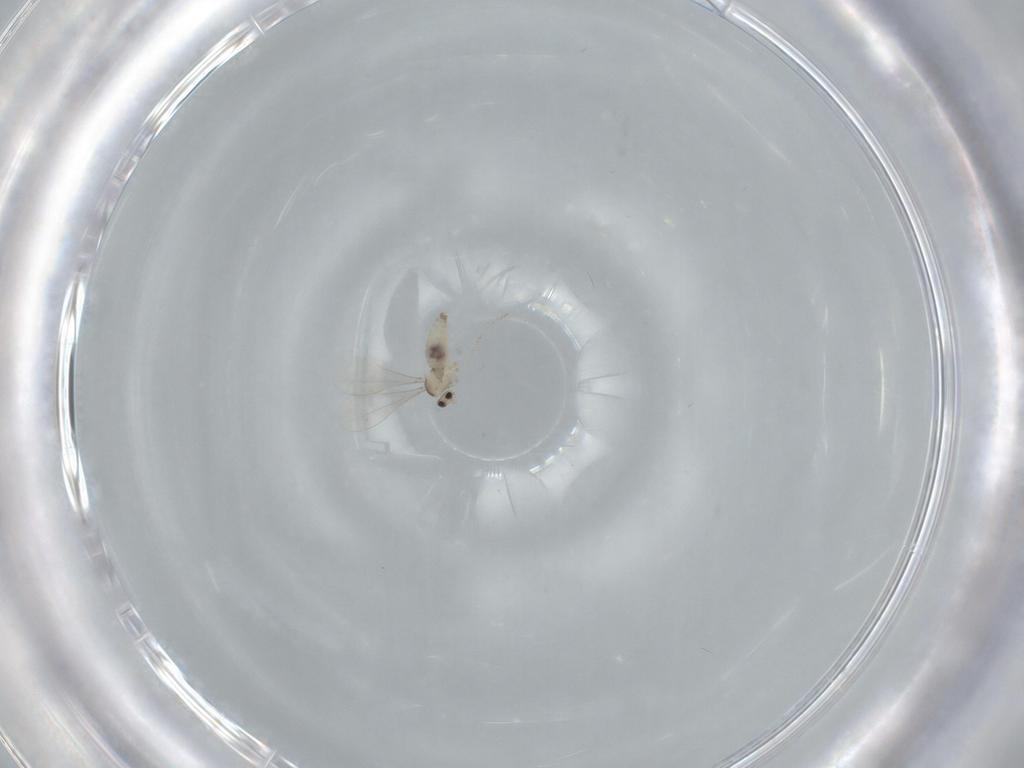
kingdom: Animalia
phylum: Arthropoda
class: Insecta
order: Diptera
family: Cecidomyiidae
